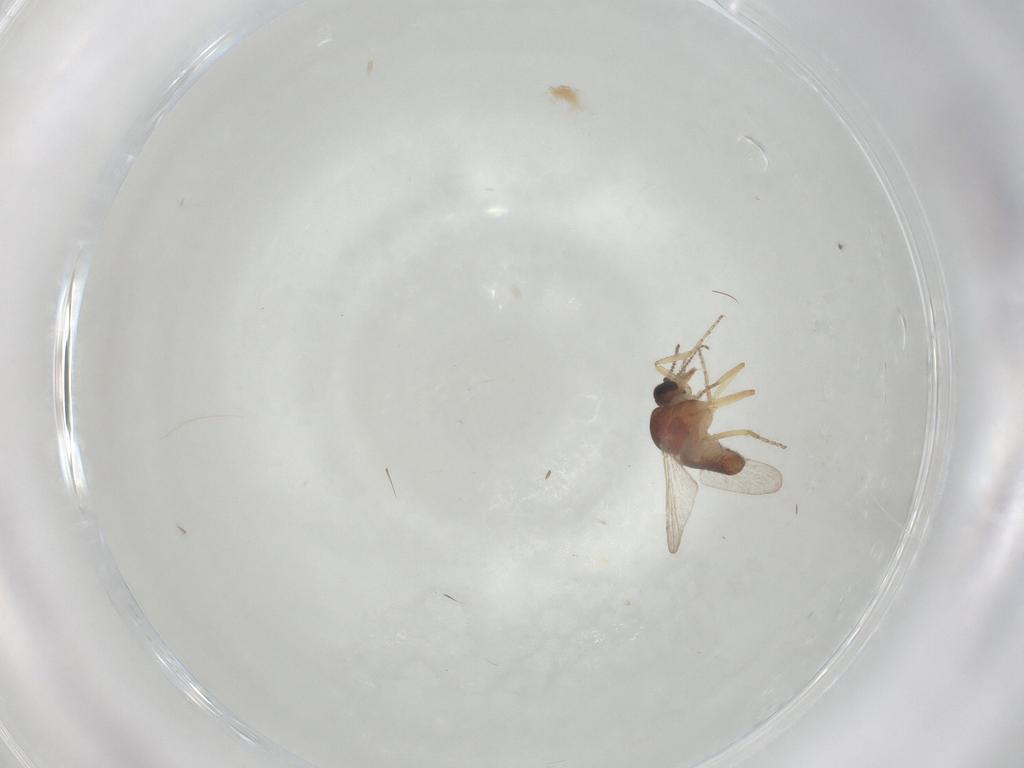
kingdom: Animalia
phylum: Arthropoda
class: Insecta
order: Diptera
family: Ceratopogonidae
